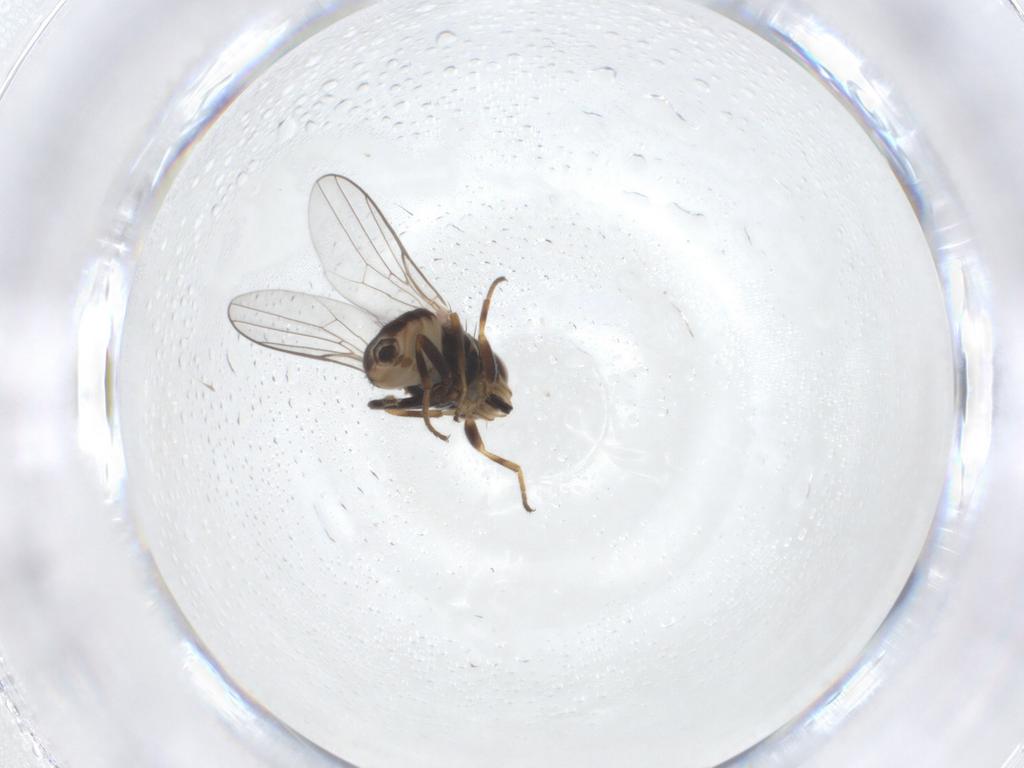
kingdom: Animalia
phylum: Arthropoda
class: Insecta
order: Diptera
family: Chloropidae
